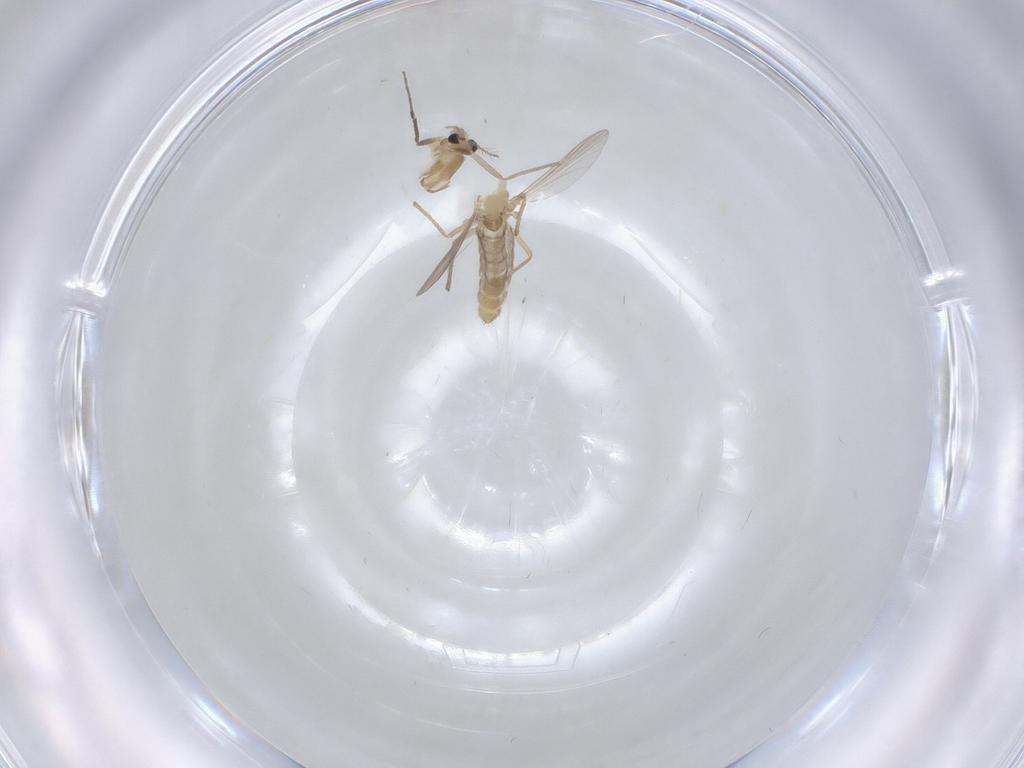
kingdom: Animalia
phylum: Arthropoda
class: Insecta
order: Diptera
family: Chironomidae
